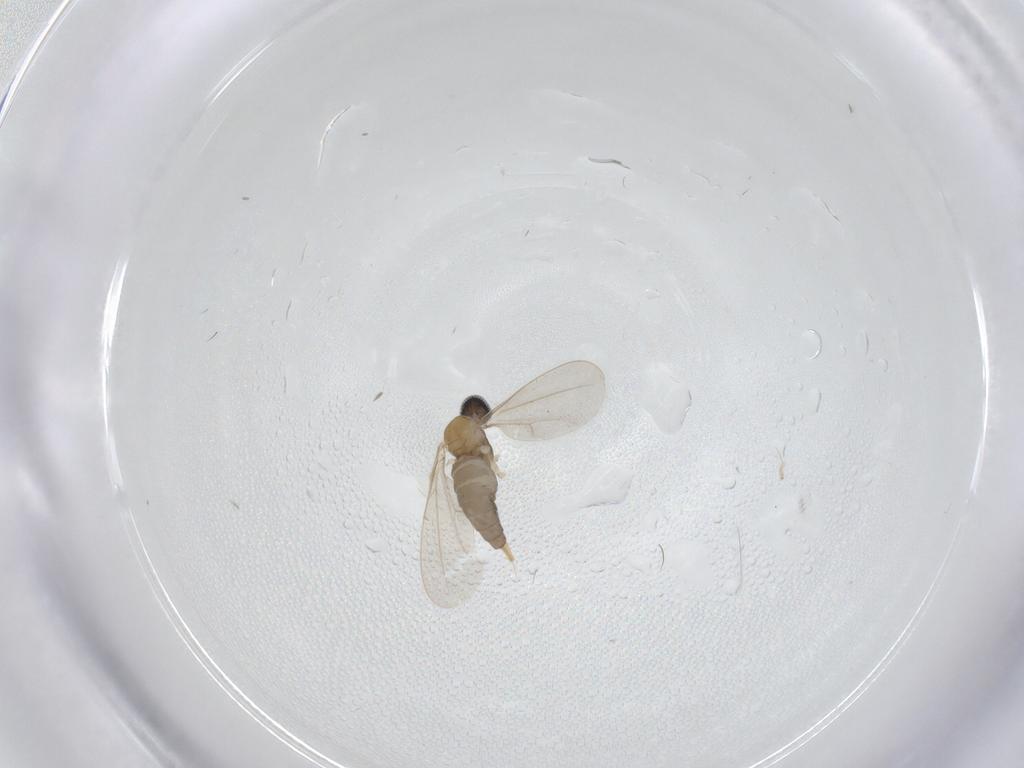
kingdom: Animalia
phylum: Arthropoda
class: Insecta
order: Diptera
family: Cecidomyiidae
